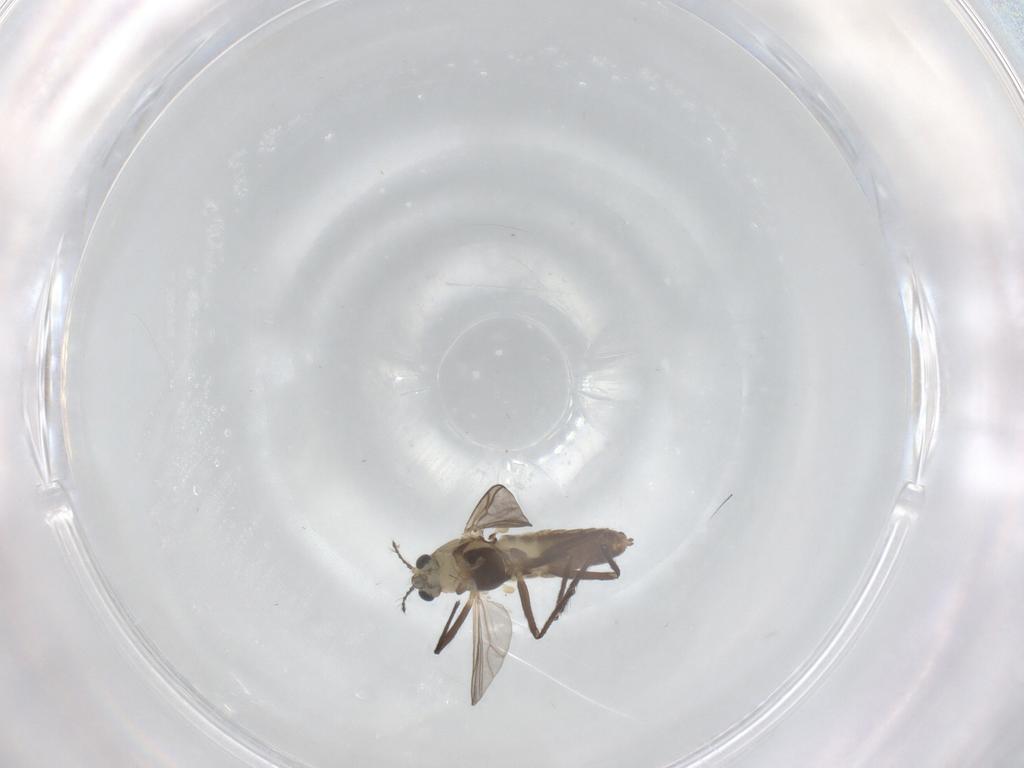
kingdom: Animalia
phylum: Arthropoda
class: Insecta
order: Diptera
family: Chironomidae
